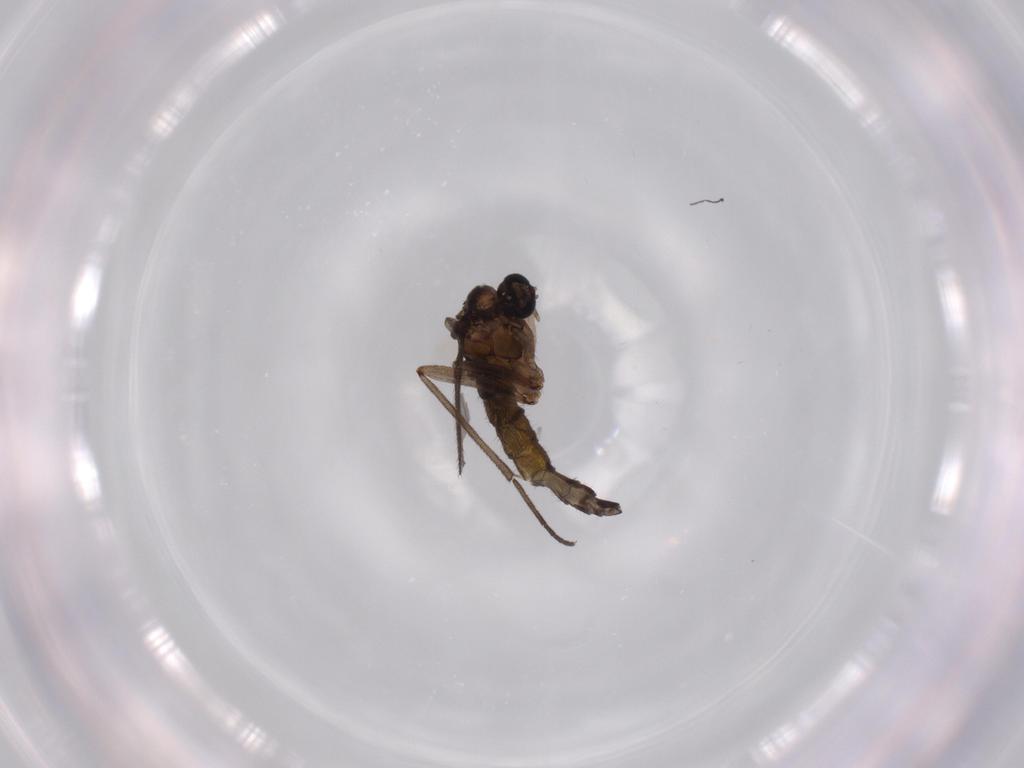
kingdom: Animalia
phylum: Arthropoda
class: Insecta
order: Diptera
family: Sciaridae
